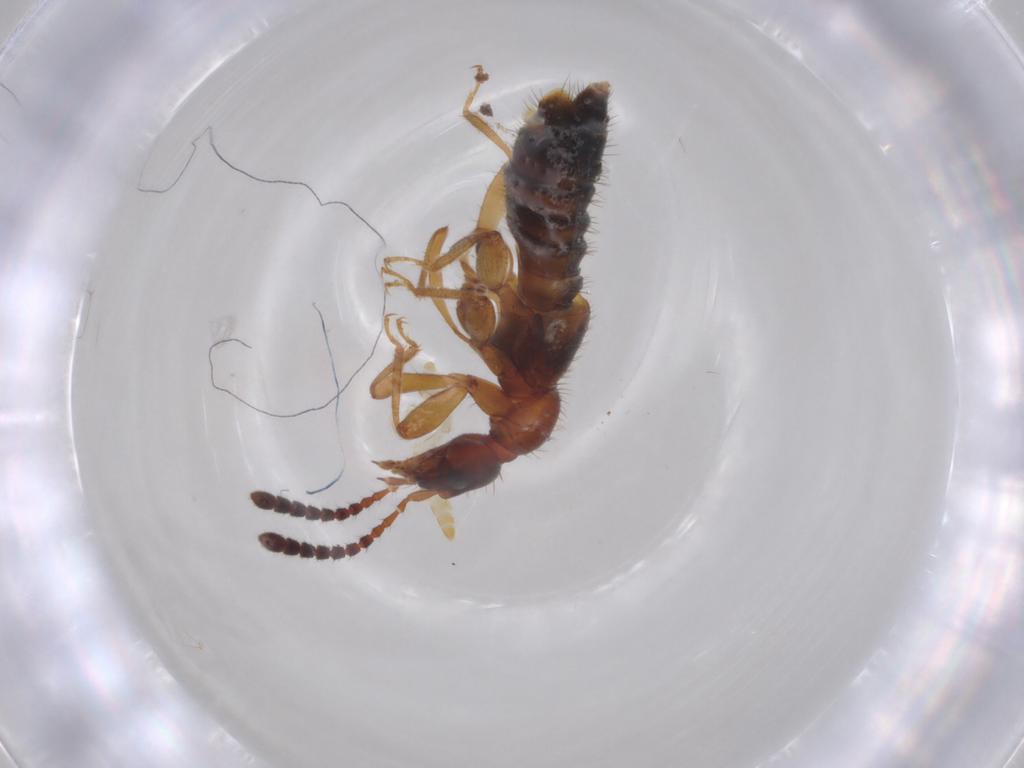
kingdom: Animalia
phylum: Arthropoda
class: Insecta
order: Coleoptera
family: Staphylinidae
